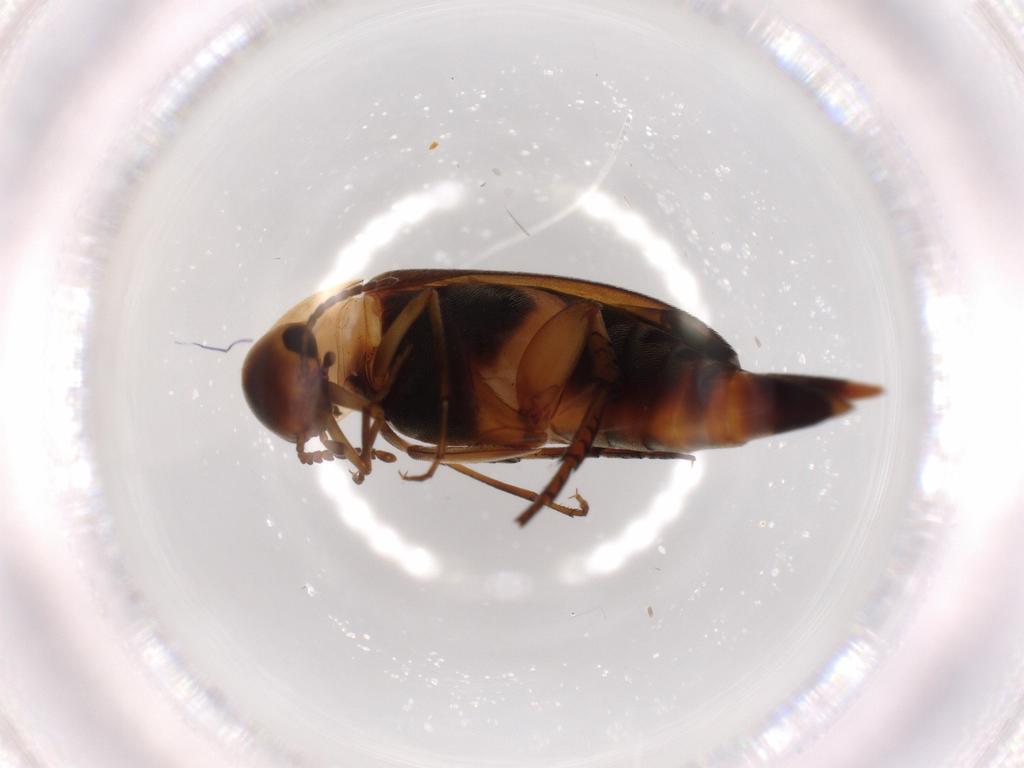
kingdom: Animalia
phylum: Arthropoda
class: Insecta
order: Coleoptera
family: Mordellidae
